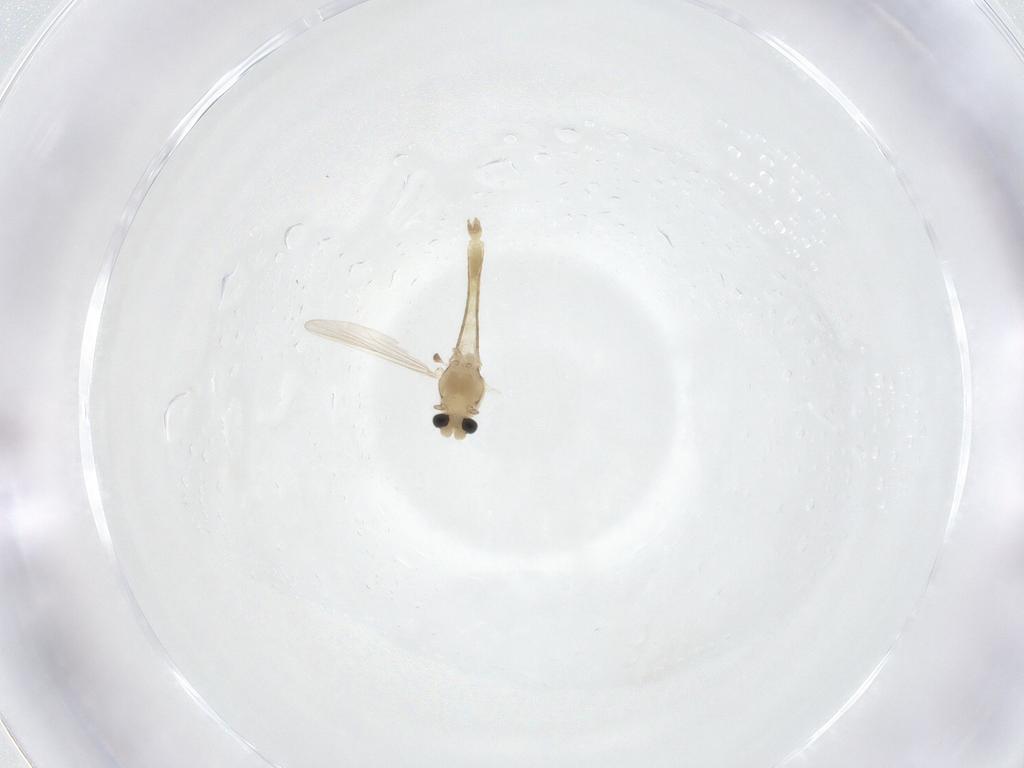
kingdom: Animalia
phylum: Arthropoda
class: Insecta
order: Diptera
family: Chironomidae
